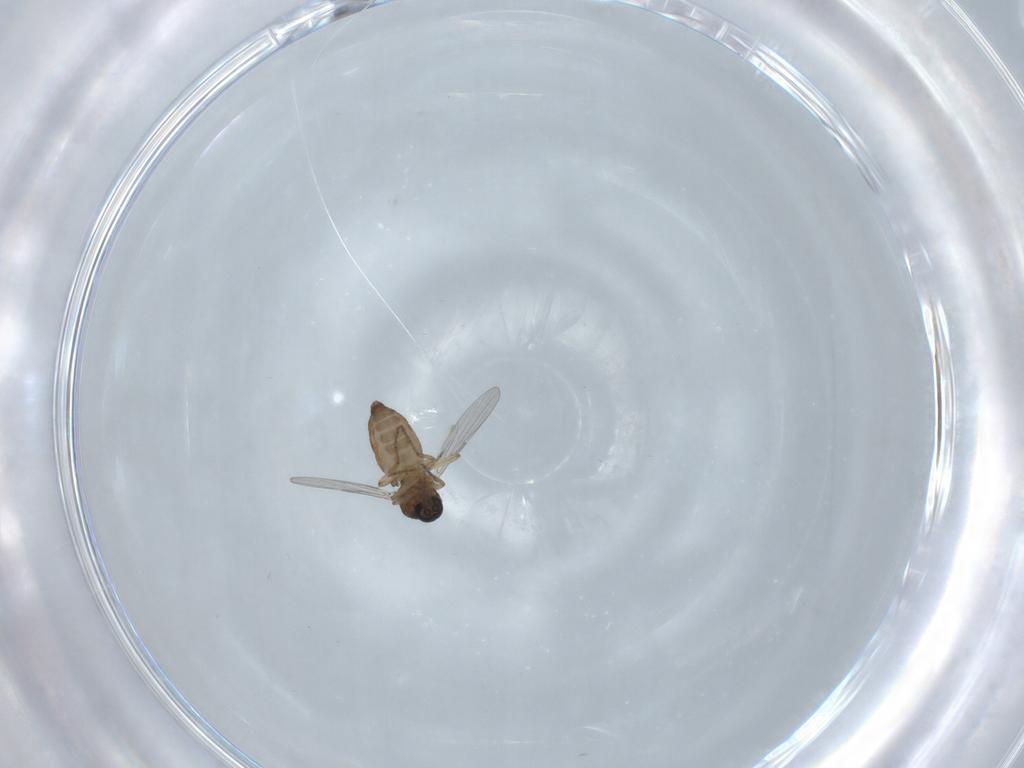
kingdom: Animalia
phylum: Arthropoda
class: Insecta
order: Diptera
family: Ceratopogonidae
